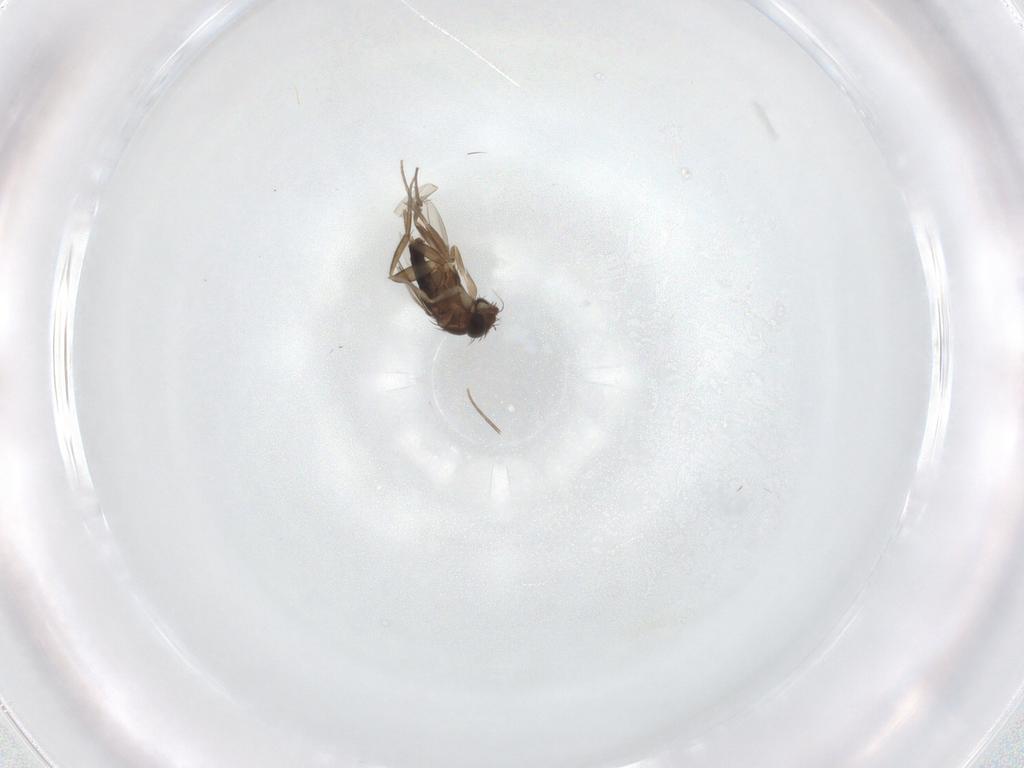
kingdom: Animalia
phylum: Arthropoda
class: Insecta
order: Diptera
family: Phoridae
